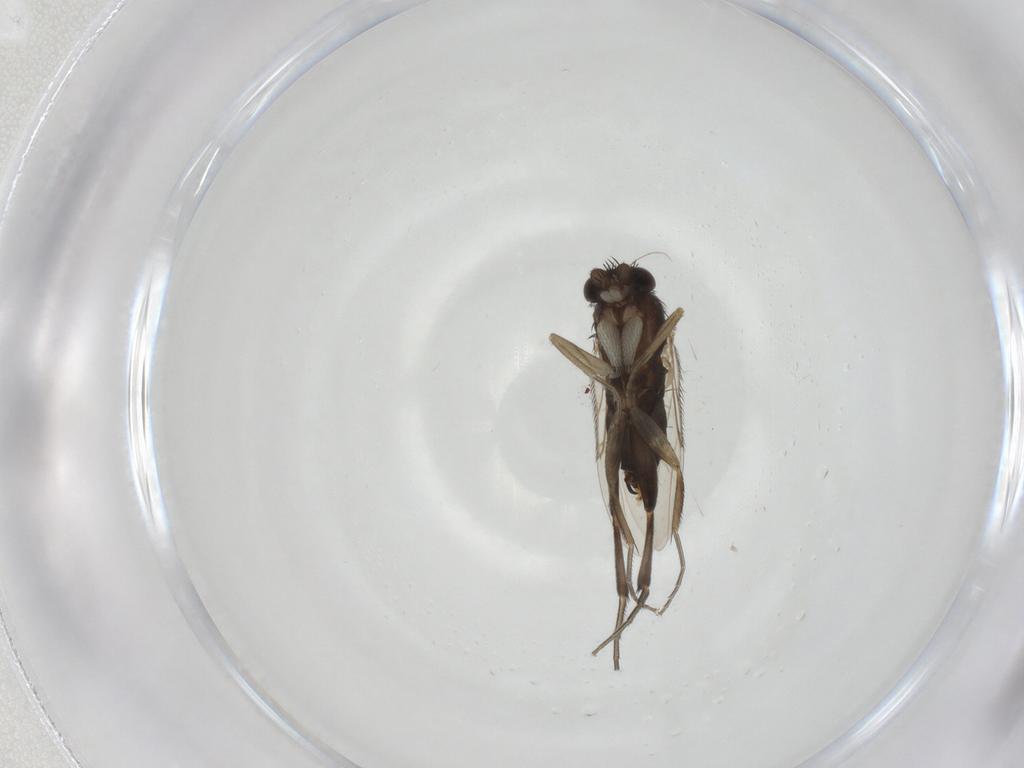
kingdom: Animalia
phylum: Arthropoda
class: Insecta
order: Diptera
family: Phoridae
